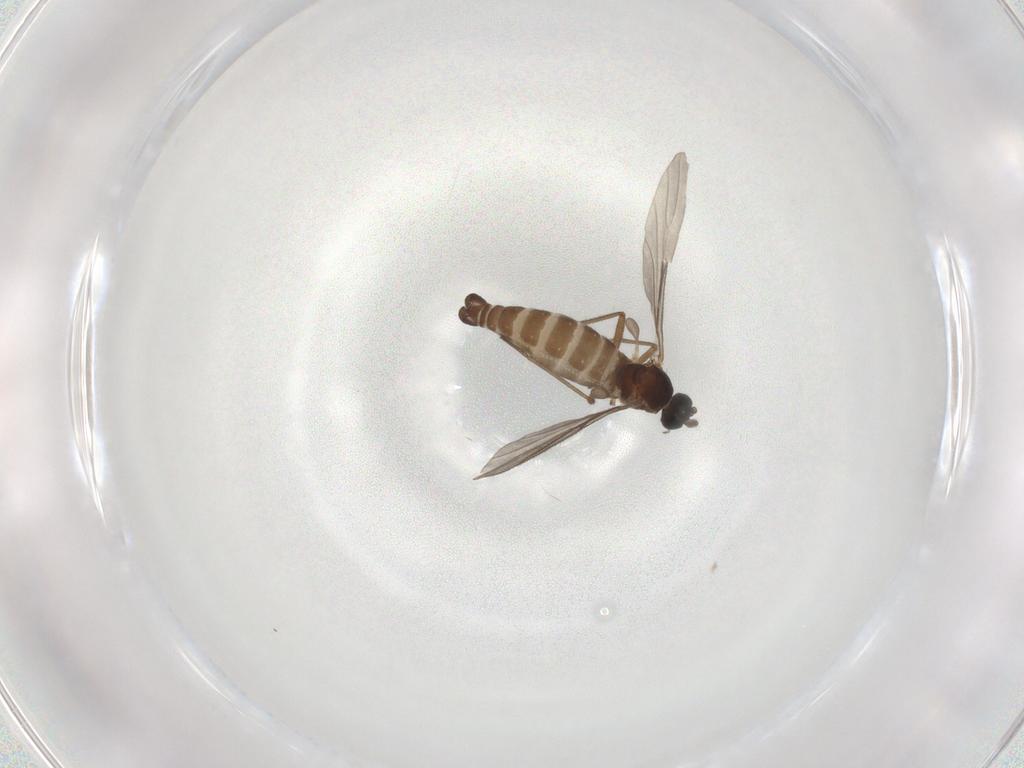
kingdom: Animalia
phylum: Arthropoda
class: Insecta
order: Diptera
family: Sciaridae
